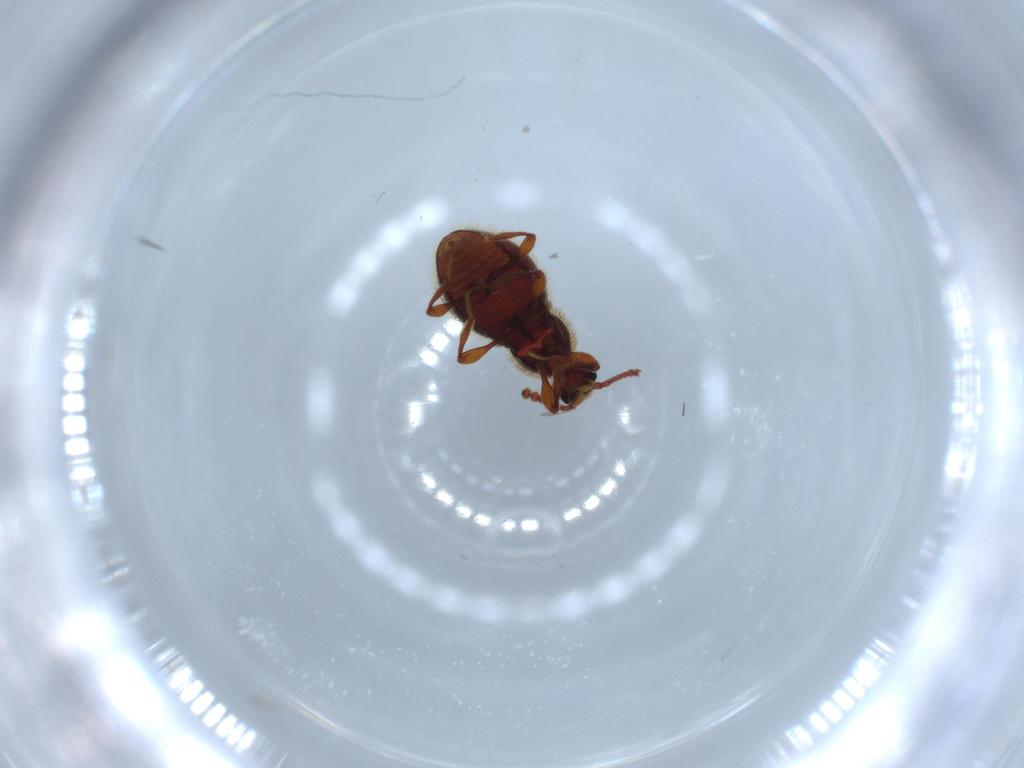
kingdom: Animalia
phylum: Arthropoda
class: Insecta
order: Coleoptera
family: Staphylinidae
